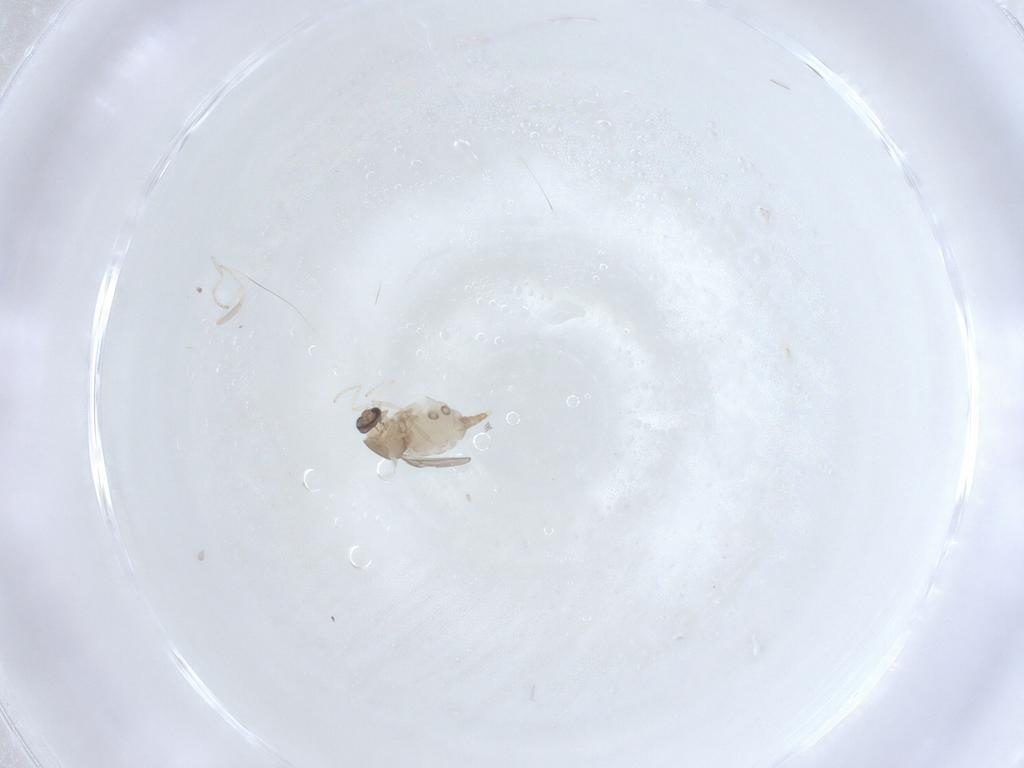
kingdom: Animalia
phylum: Arthropoda
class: Insecta
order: Diptera
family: Cecidomyiidae
